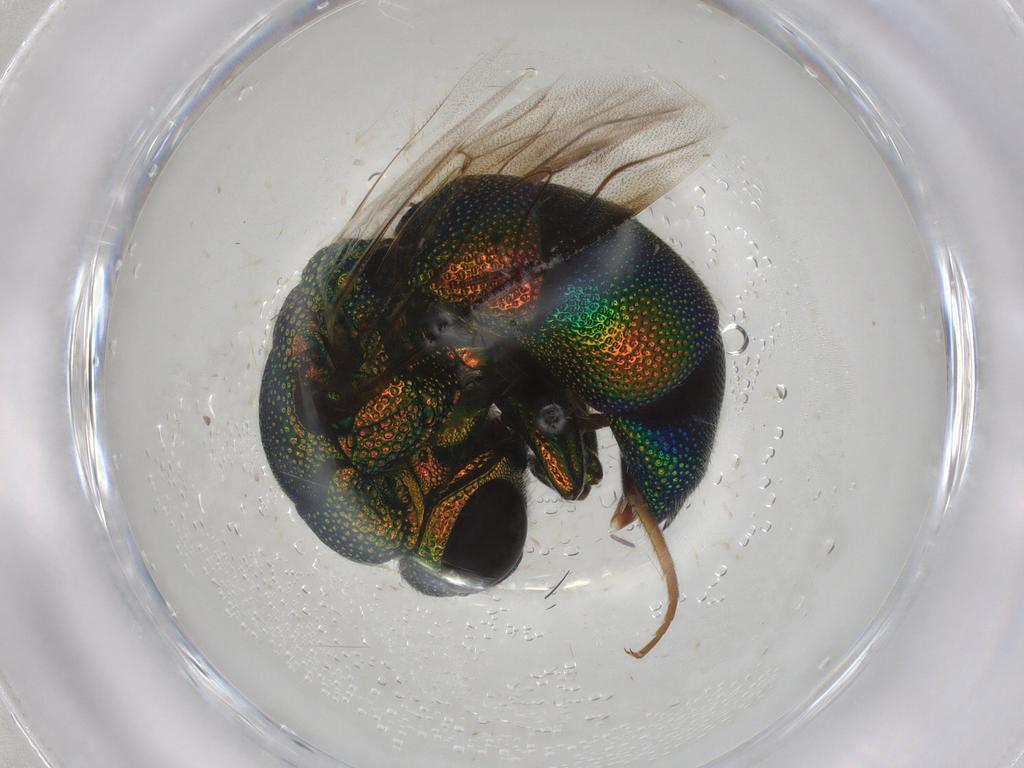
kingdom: Animalia
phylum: Arthropoda
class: Insecta
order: Hymenoptera
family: Chrysididae
